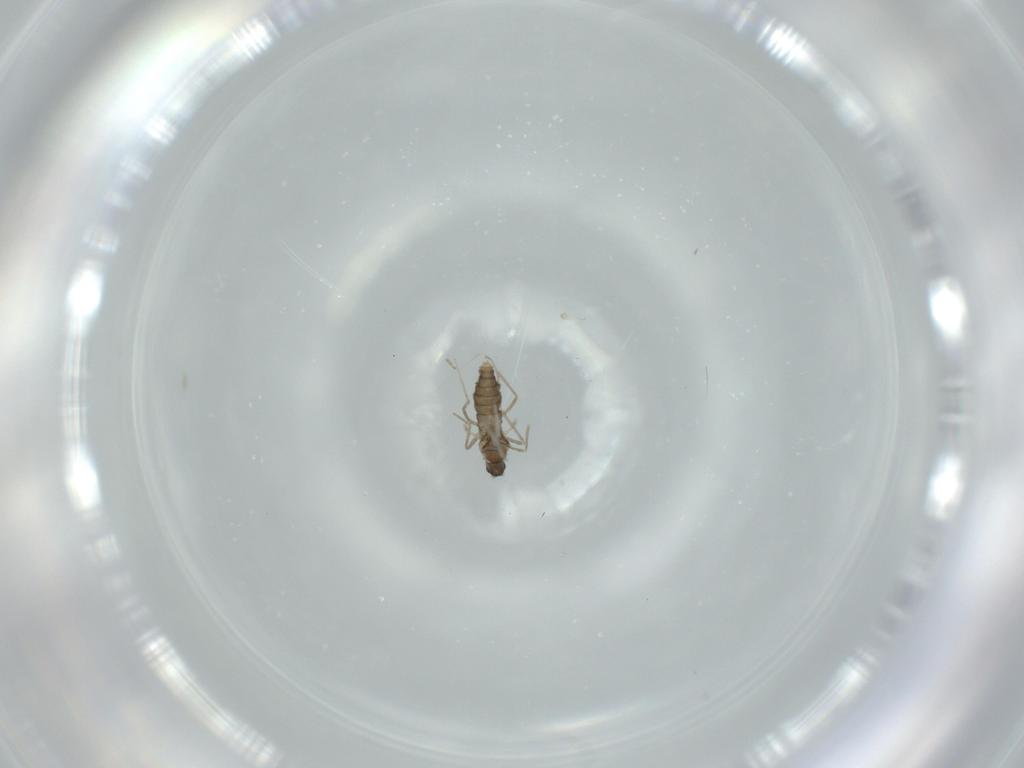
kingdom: Animalia
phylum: Arthropoda
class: Insecta
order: Diptera
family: Cecidomyiidae
